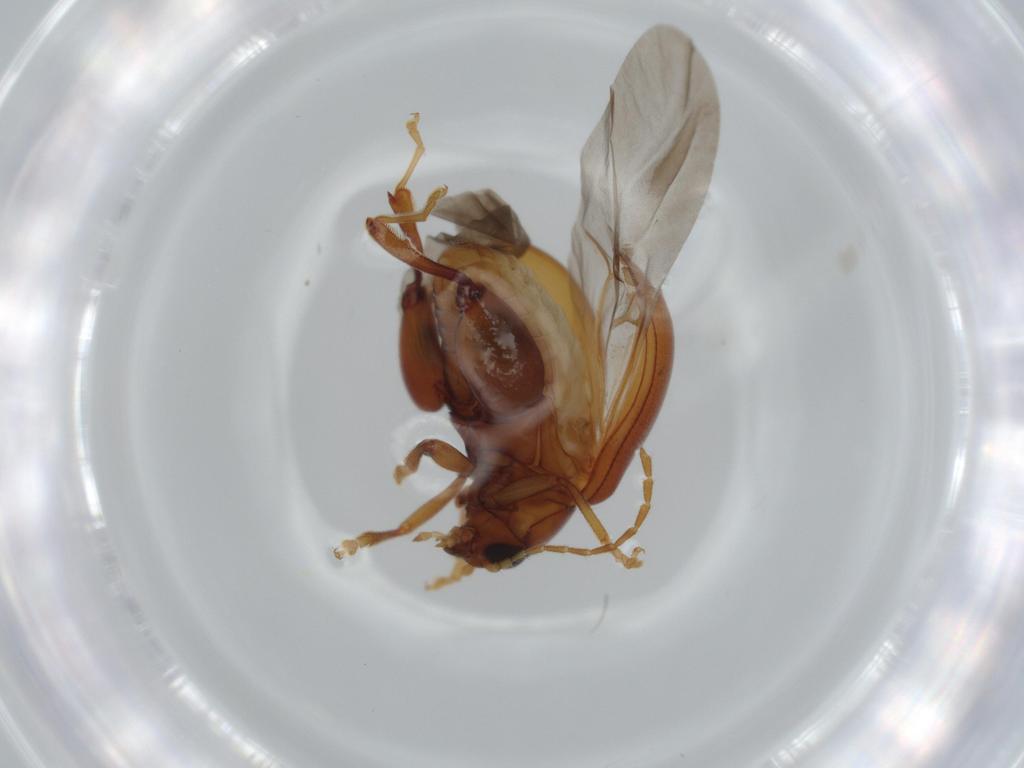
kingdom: Animalia
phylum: Arthropoda
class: Insecta
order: Coleoptera
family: Chrysomelidae
